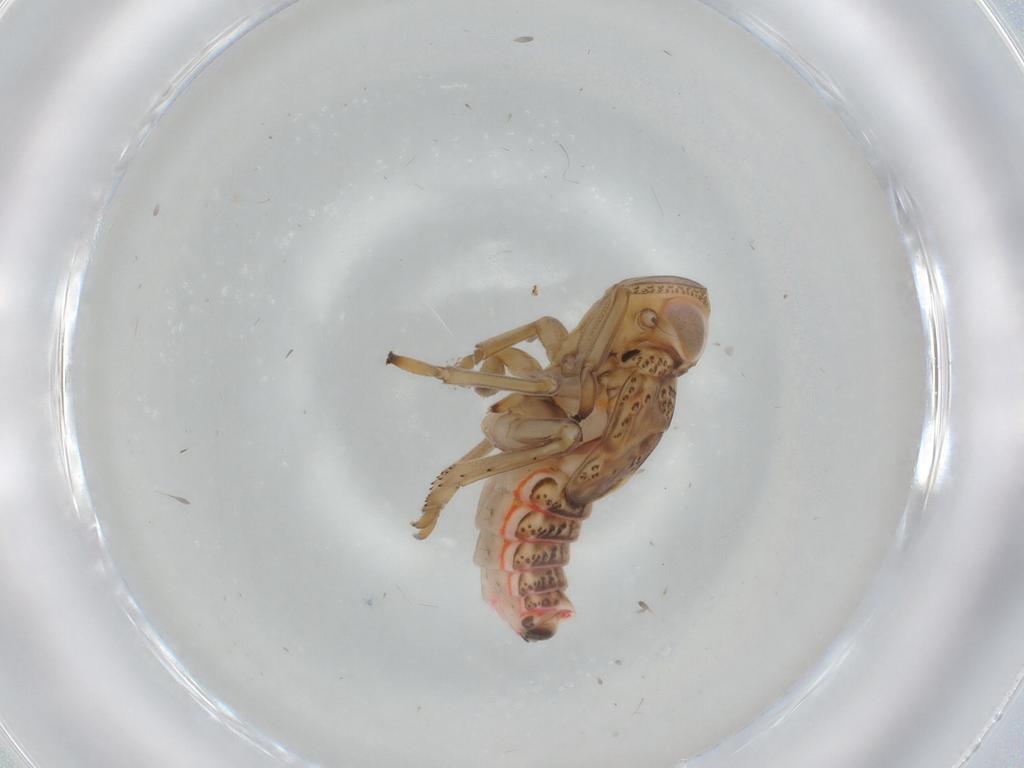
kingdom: Animalia
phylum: Arthropoda
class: Insecta
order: Hemiptera
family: Issidae
